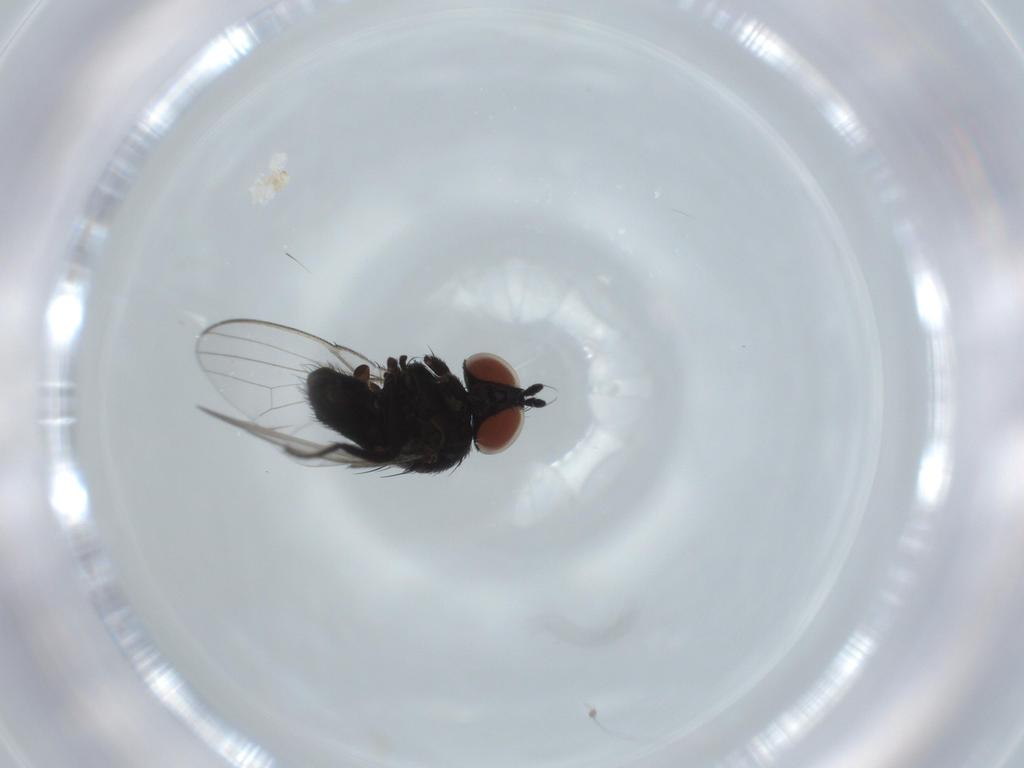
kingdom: Animalia
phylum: Arthropoda
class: Insecta
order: Diptera
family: Milichiidae
